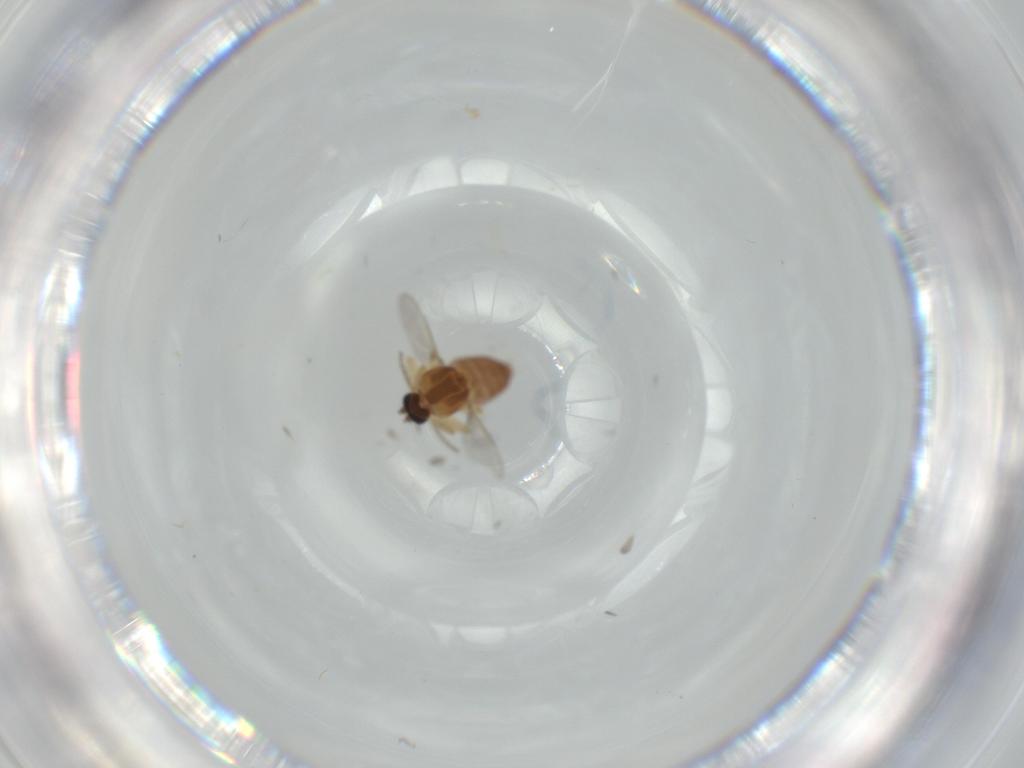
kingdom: Animalia
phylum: Arthropoda
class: Insecta
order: Diptera
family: Ceratopogonidae
